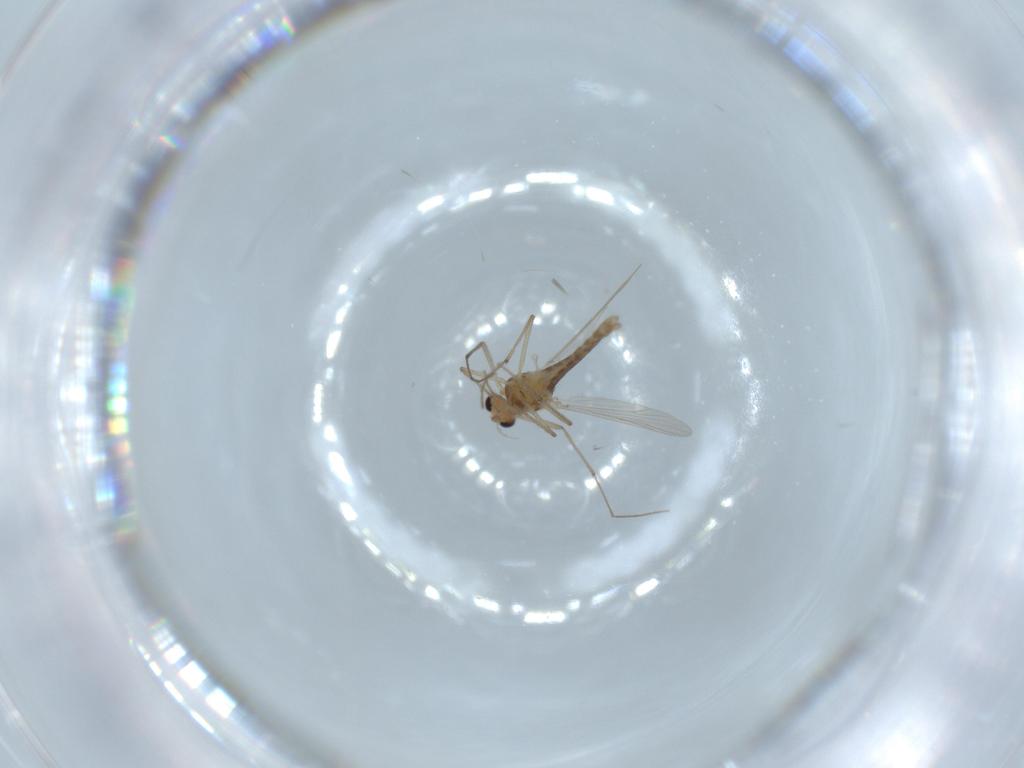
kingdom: Animalia
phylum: Arthropoda
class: Insecta
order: Diptera
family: Chironomidae
